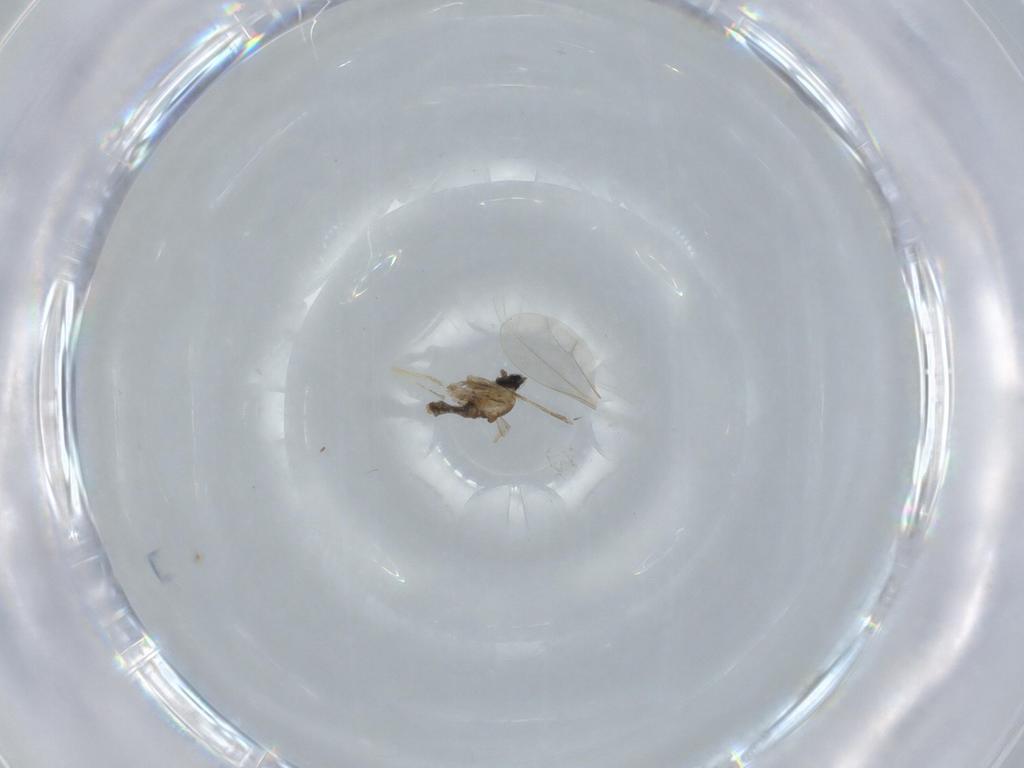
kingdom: Animalia
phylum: Arthropoda
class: Insecta
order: Diptera
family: Cecidomyiidae
